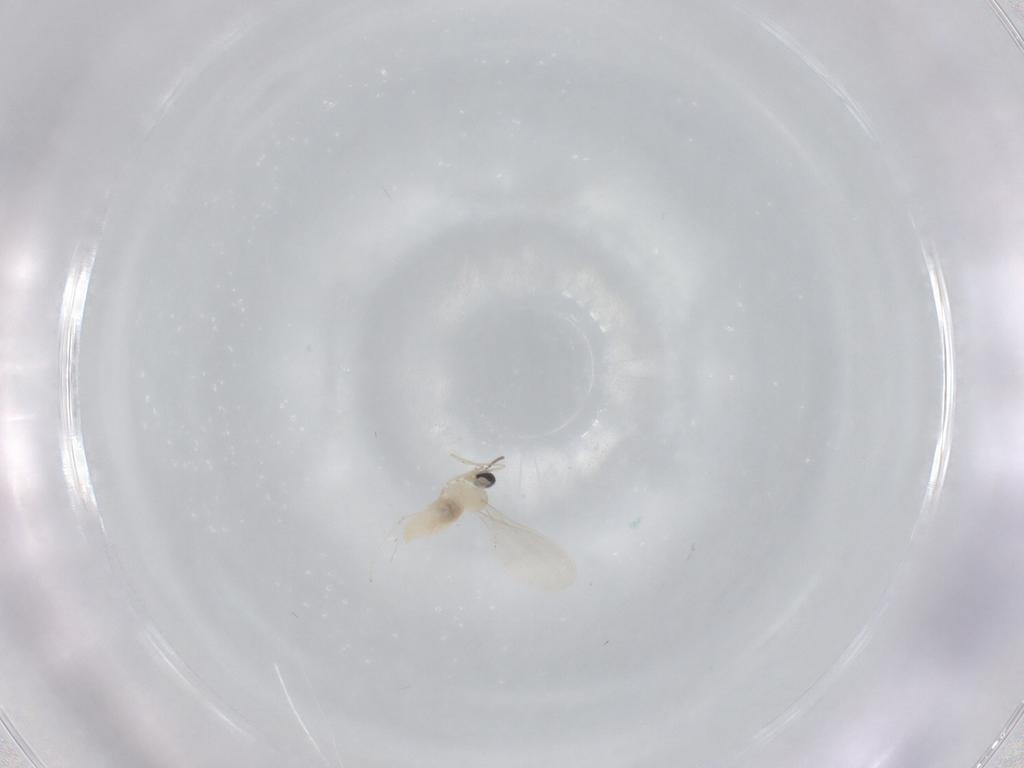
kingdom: Animalia
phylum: Arthropoda
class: Insecta
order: Diptera
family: Cecidomyiidae
